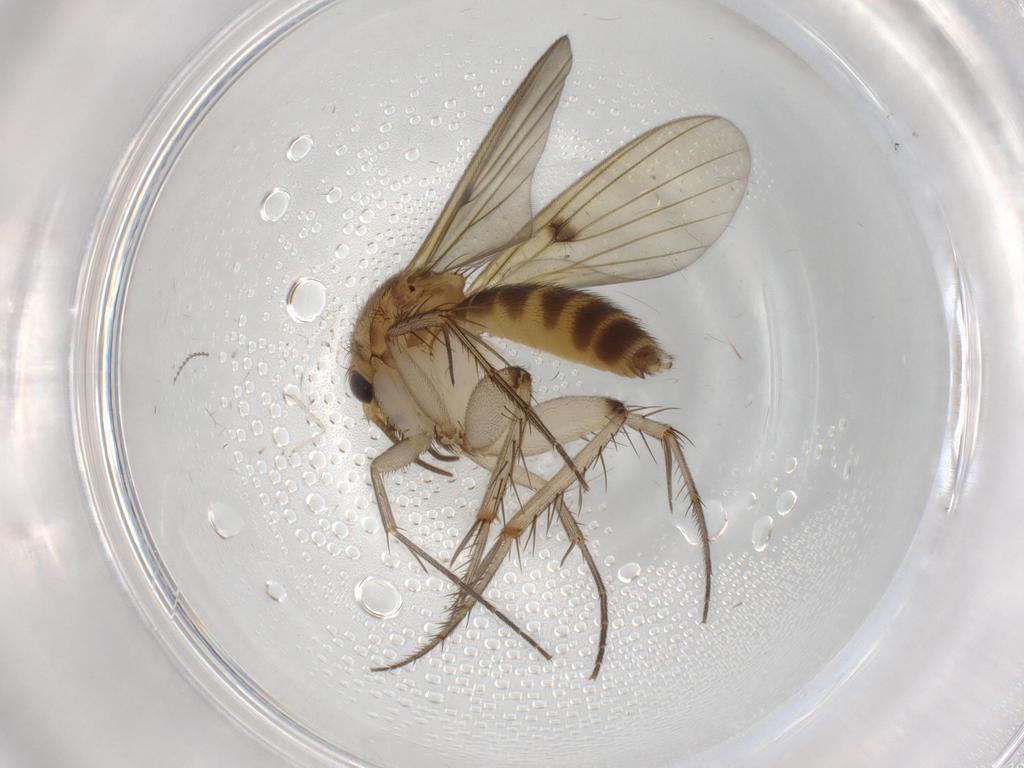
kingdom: Animalia
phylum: Arthropoda
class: Insecta
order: Diptera
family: Mycetophilidae
